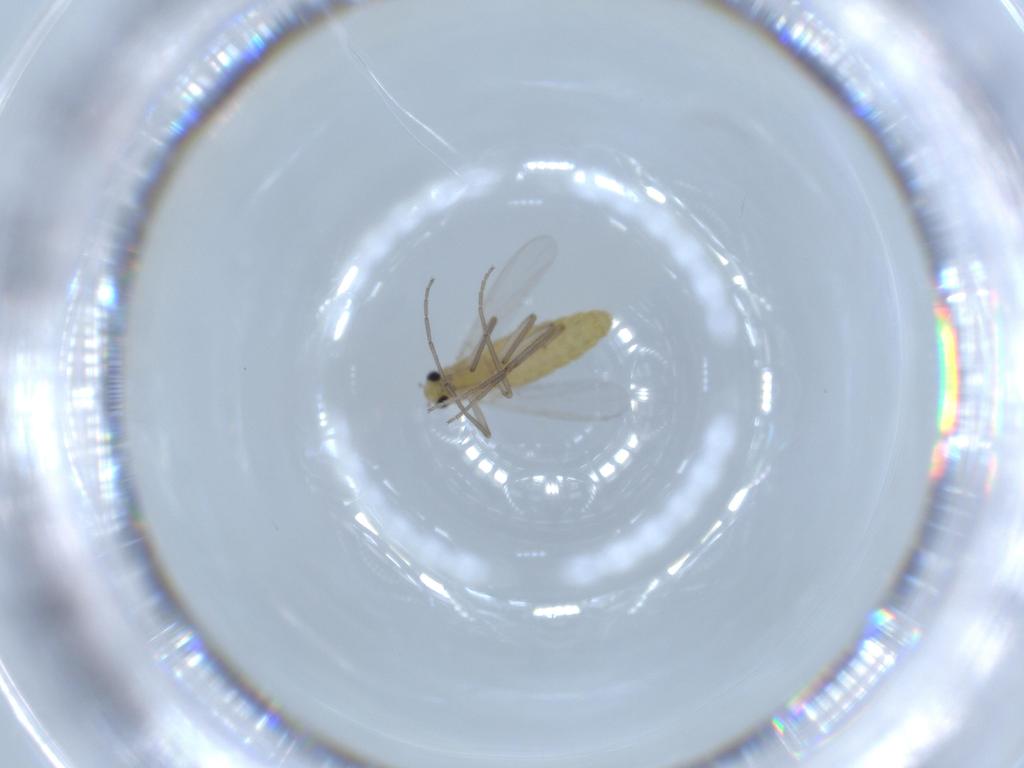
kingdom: Animalia
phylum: Arthropoda
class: Insecta
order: Diptera
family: Chironomidae
